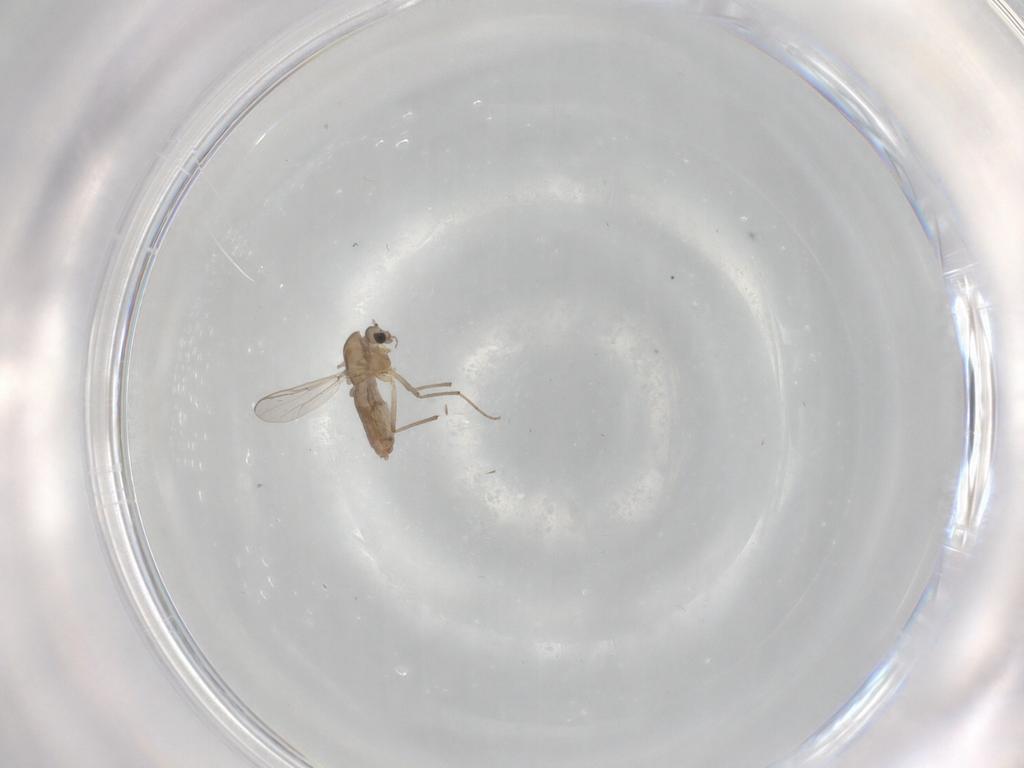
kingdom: Animalia
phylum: Arthropoda
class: Insecta
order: Diptera
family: Chironomidae
